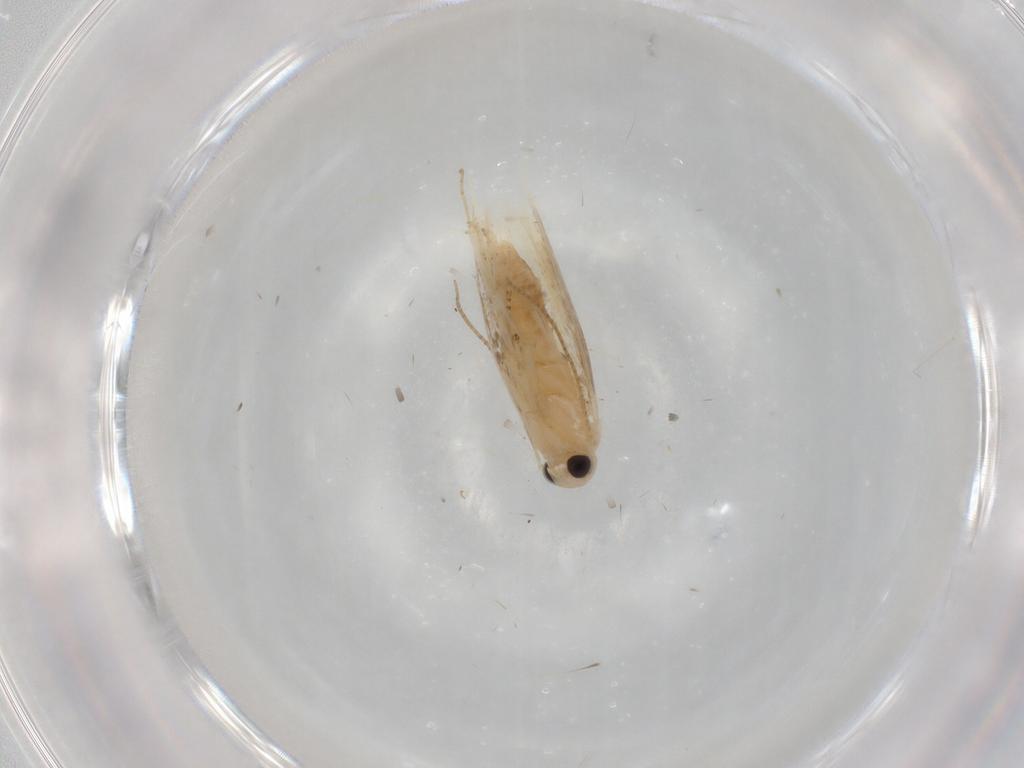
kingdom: Animalia
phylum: Arthropoda
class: Insecta
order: Lepidoptera
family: Bucculatricidae
